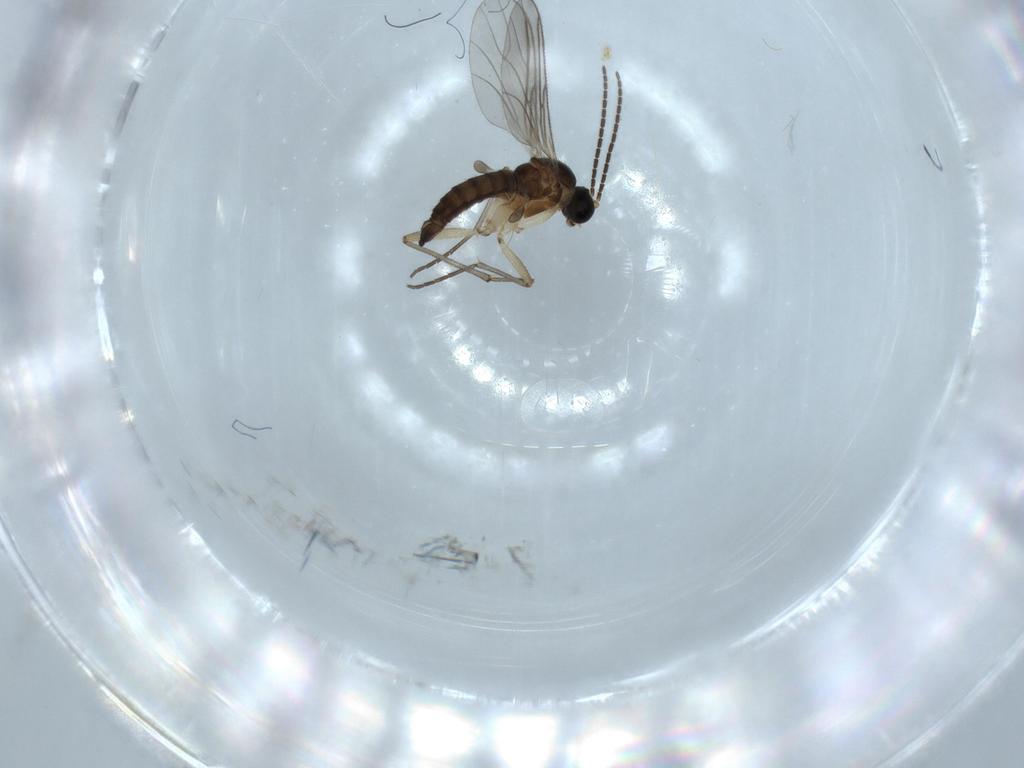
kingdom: Animalia
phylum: Arthropoda
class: Insecta
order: Diptera
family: Sciaridae
